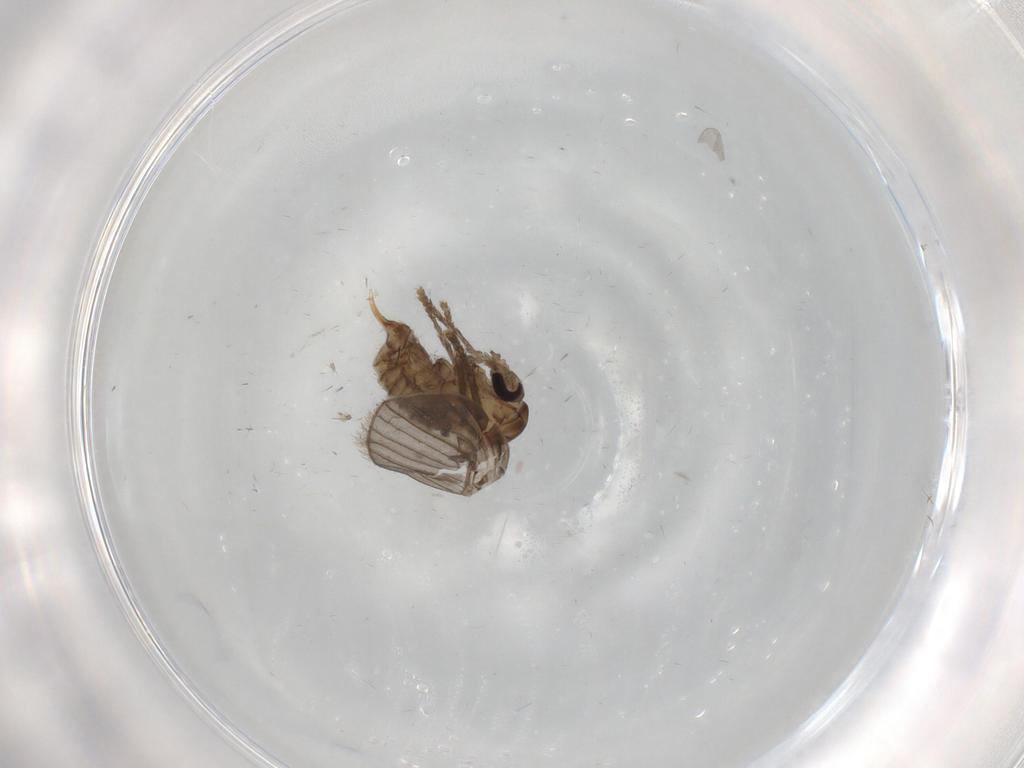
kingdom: Animalia
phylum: Arthropoda
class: Insecta
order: Diptera
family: Psychodidae
